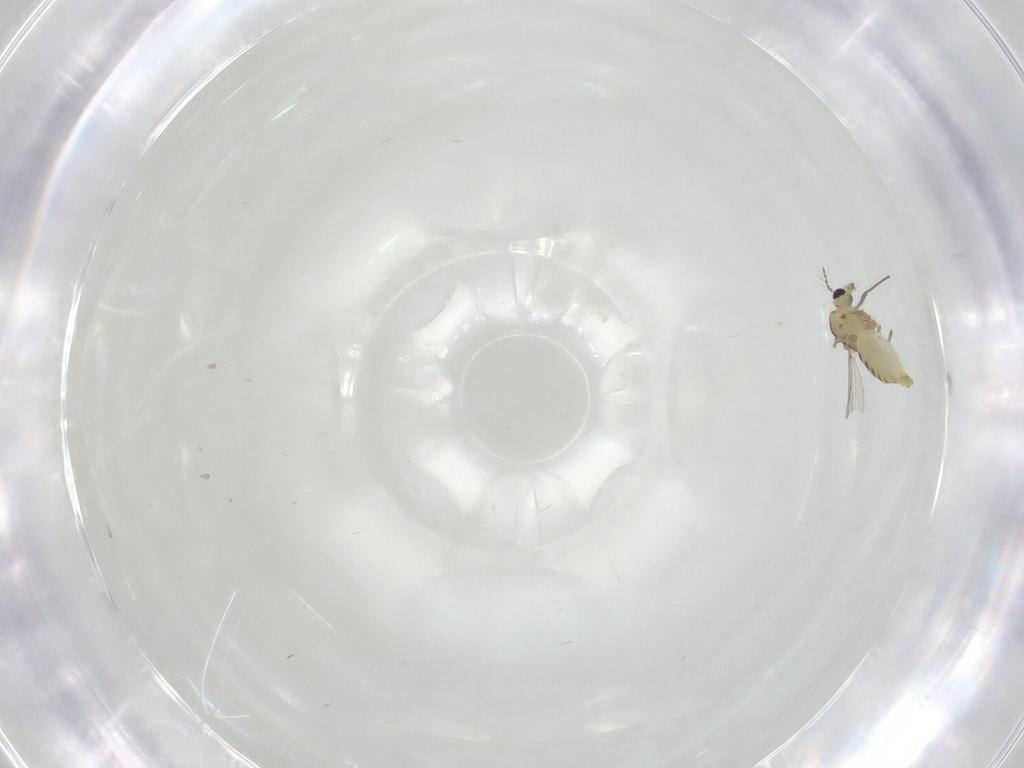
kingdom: Animalia
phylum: Arthropoda
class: Insecta
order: Diptera
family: Chironomidae
